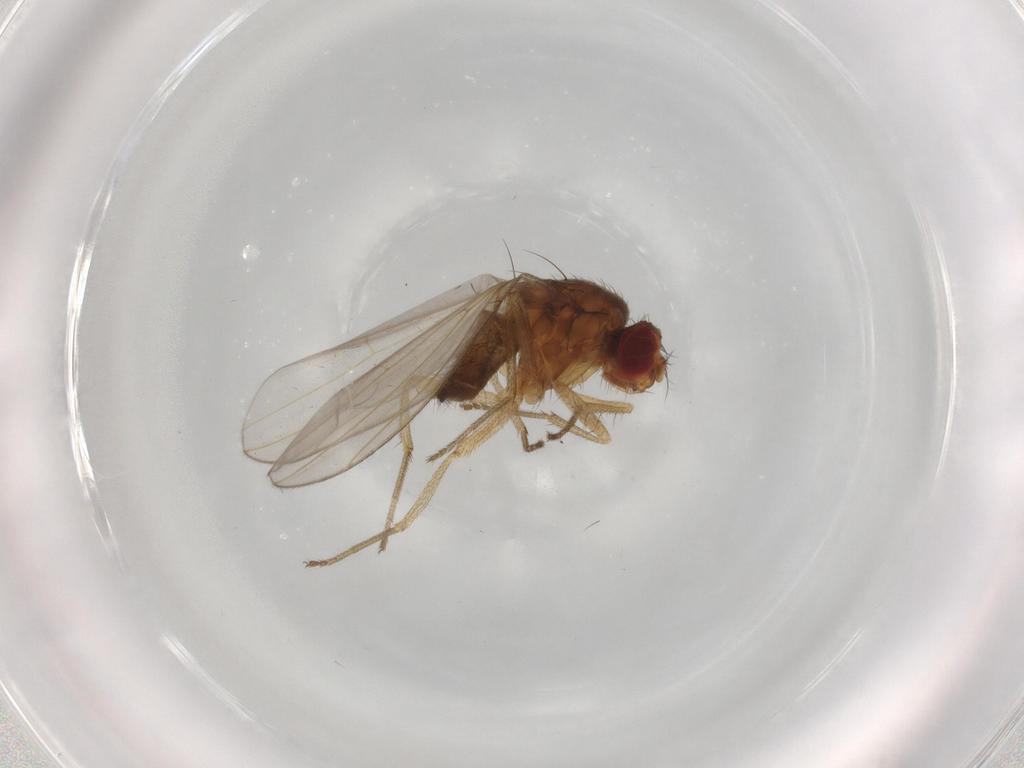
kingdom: Animalia
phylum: Arthropoda
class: Insecta
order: Diptera
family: Drosophilidae
